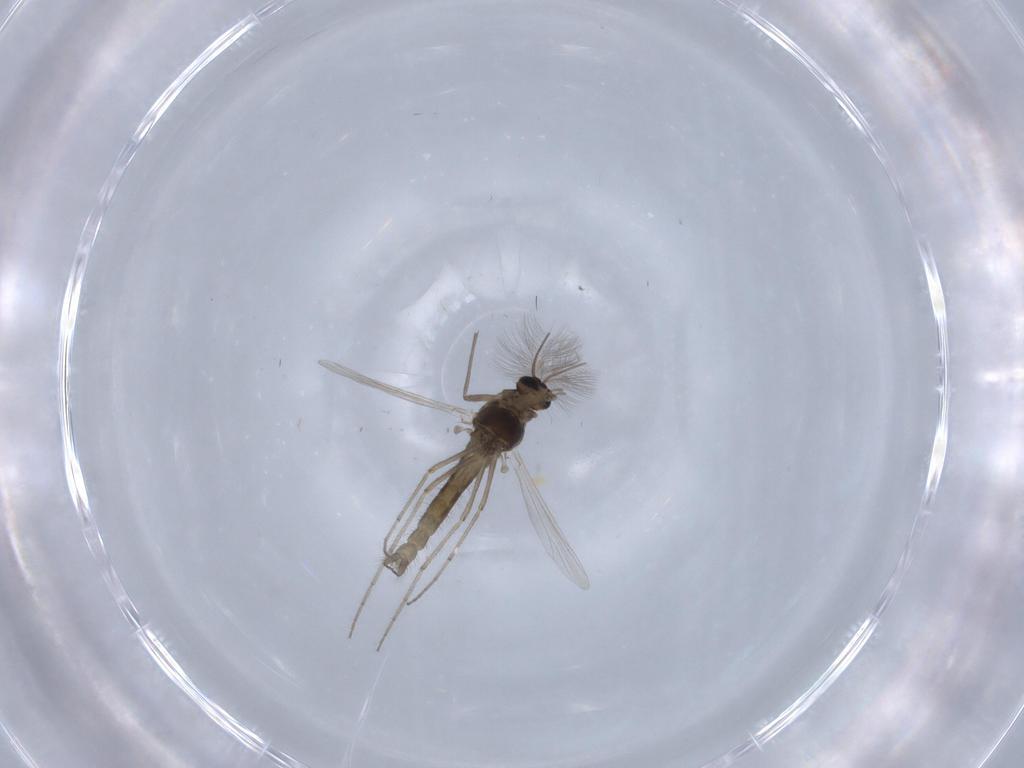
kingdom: Animalia
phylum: Arthropoda
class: Insecta
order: Diptera
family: Chironomidae
